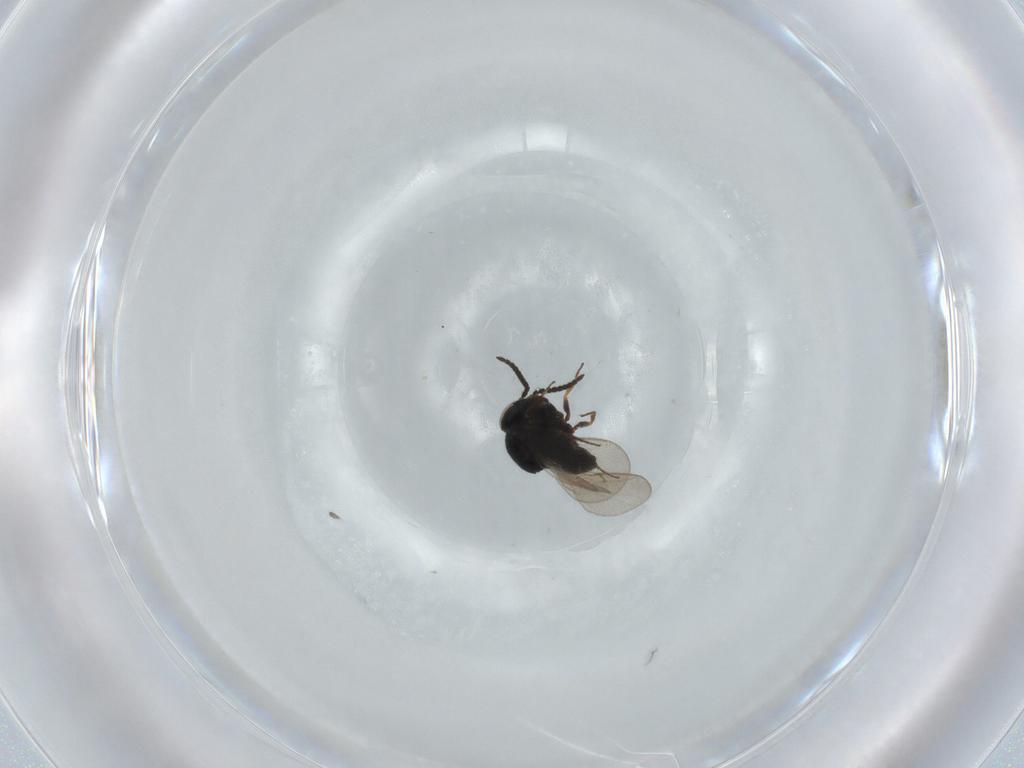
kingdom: Animalia
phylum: Arthropoda
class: Insecta
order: Hymenoptera
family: Scelionidae
